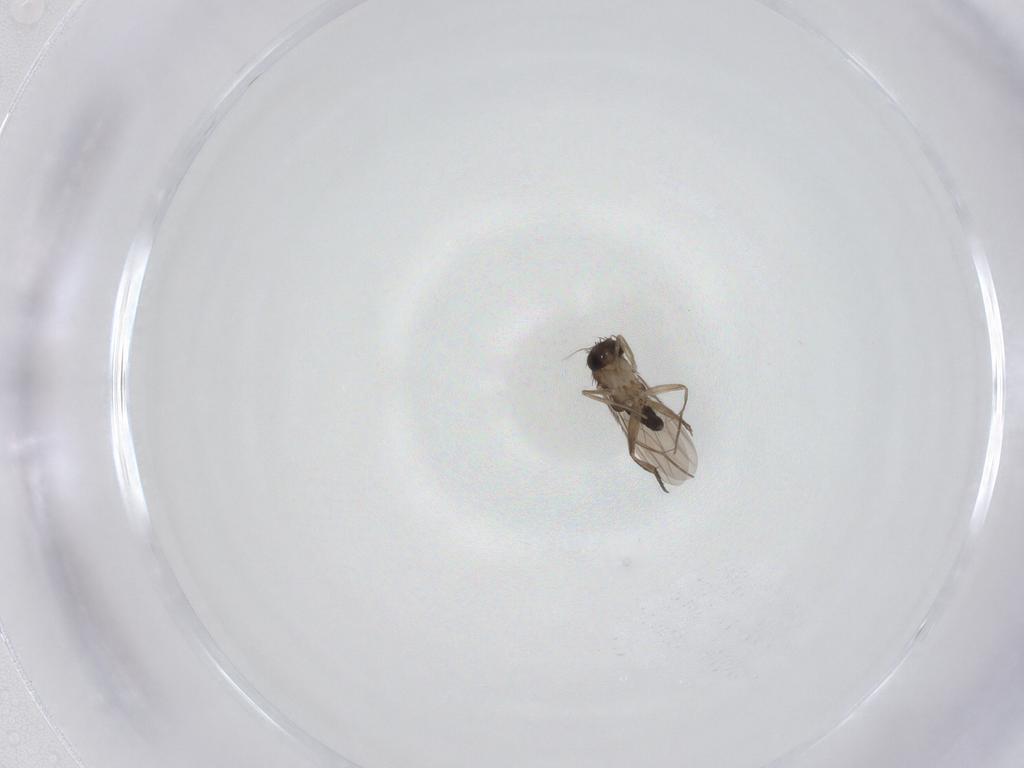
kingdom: Animalia
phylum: Arthropoda
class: Insecta
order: Diptera
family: Phoridae
